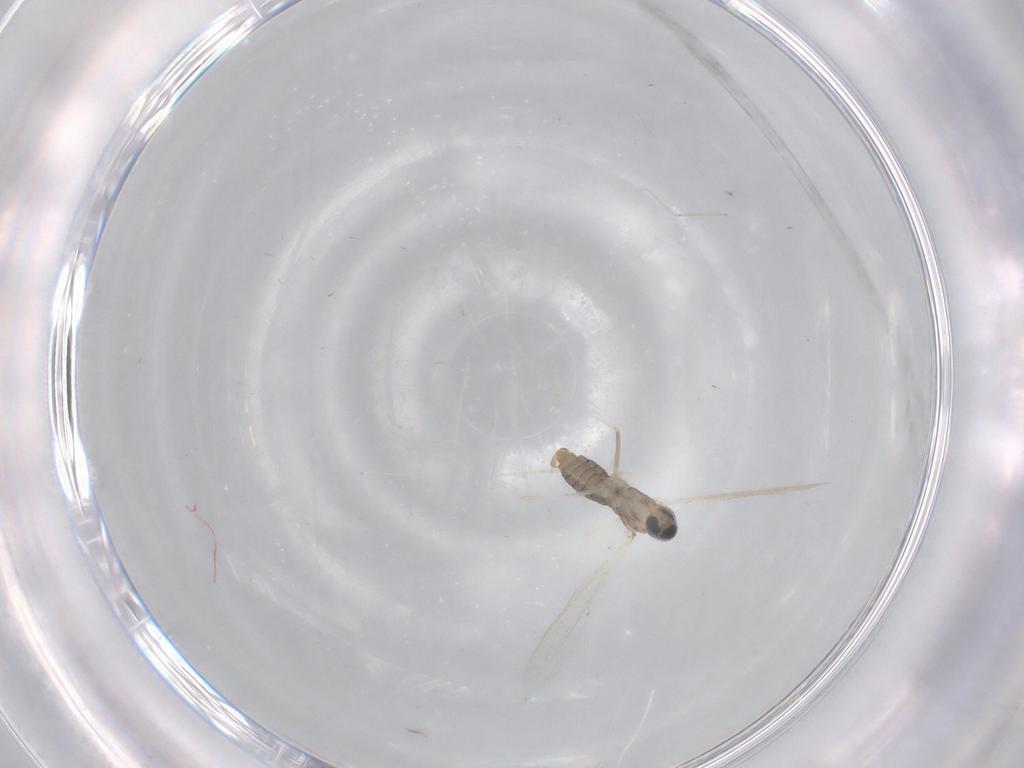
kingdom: Animalia
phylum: Arthropoda
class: Insecta
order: Diptera
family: Cecidomyiidae
